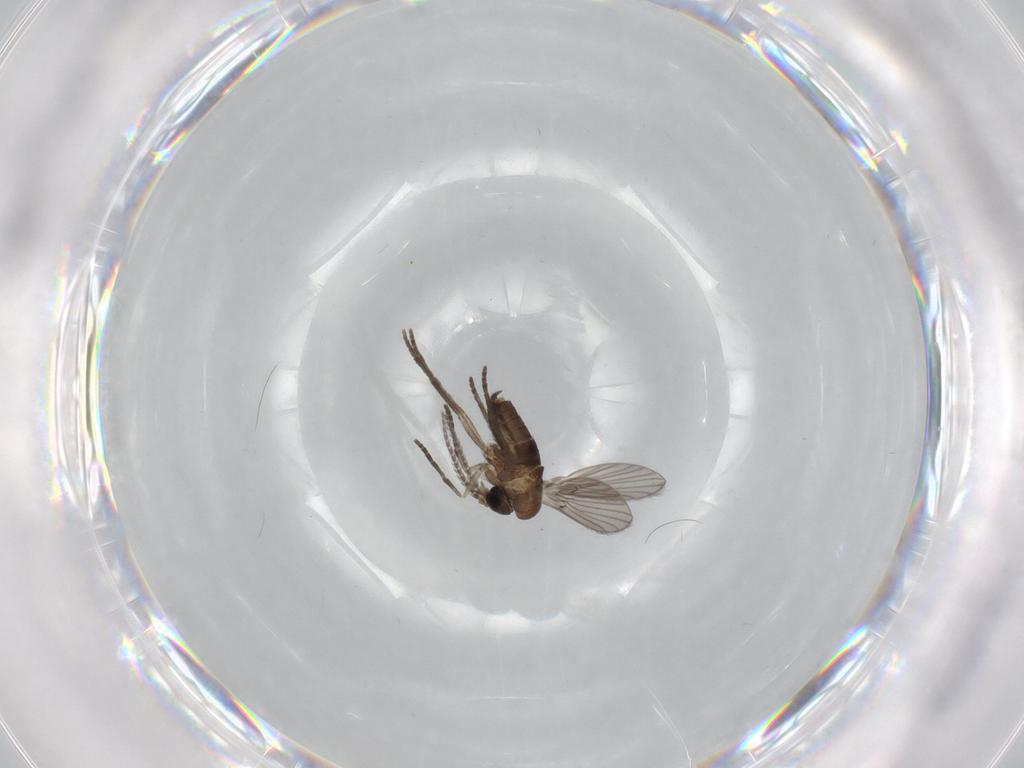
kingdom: Animalia
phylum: Arthropoda
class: Insecta
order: Diptera
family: Psychodidae
